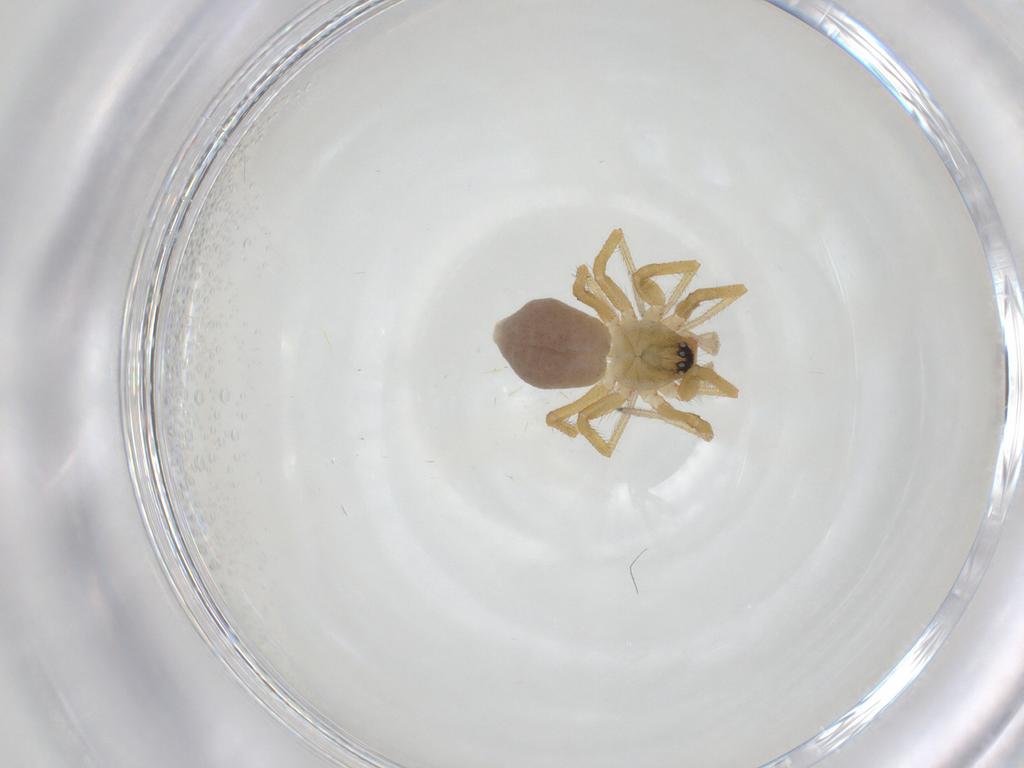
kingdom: Animalia
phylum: Arthropoda
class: Arachnida
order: Araneae
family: Linyphiidae
